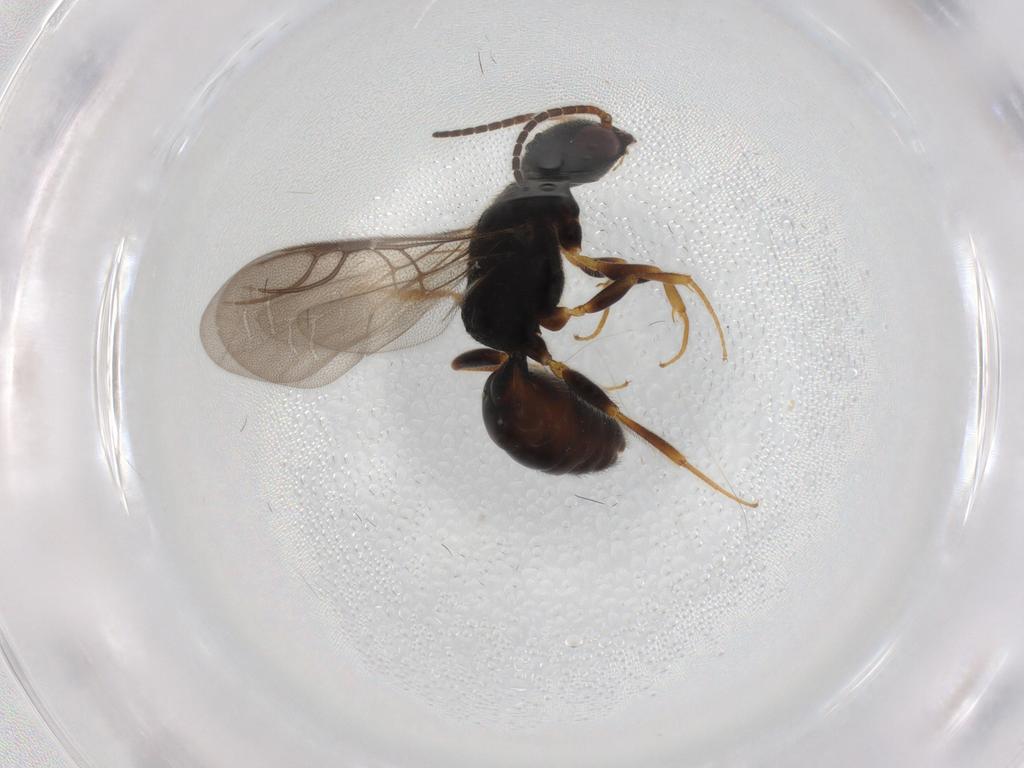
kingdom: Animalia
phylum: Arthropoda
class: Insecta
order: Hymenoptera
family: Bethylidae
